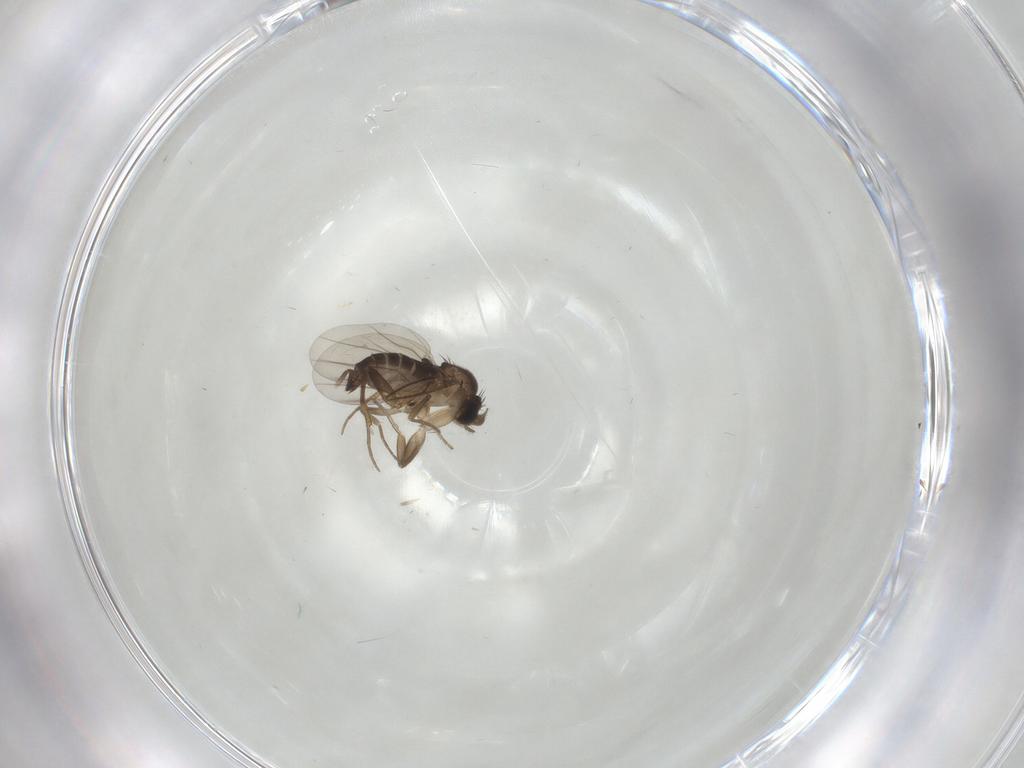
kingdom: Animalia
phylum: Arthropoda
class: Insecta
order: Diptera
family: Phoridae
